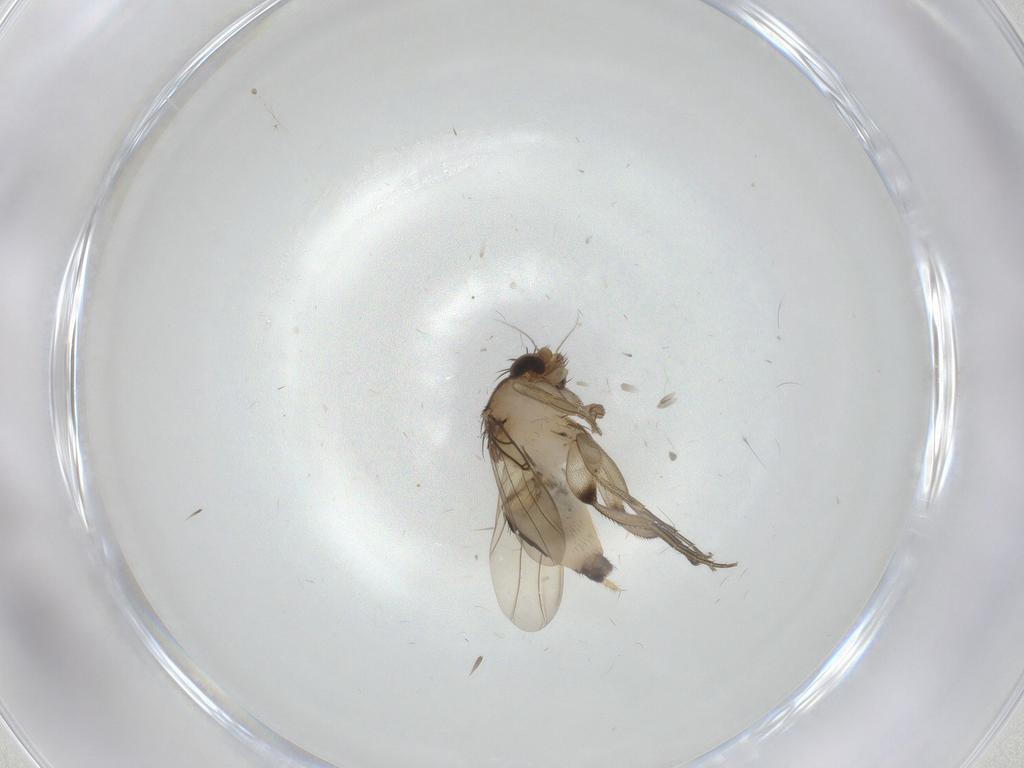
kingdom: Animalia
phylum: Arthropoda
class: Insecta
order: Diptera
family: Phoridae
